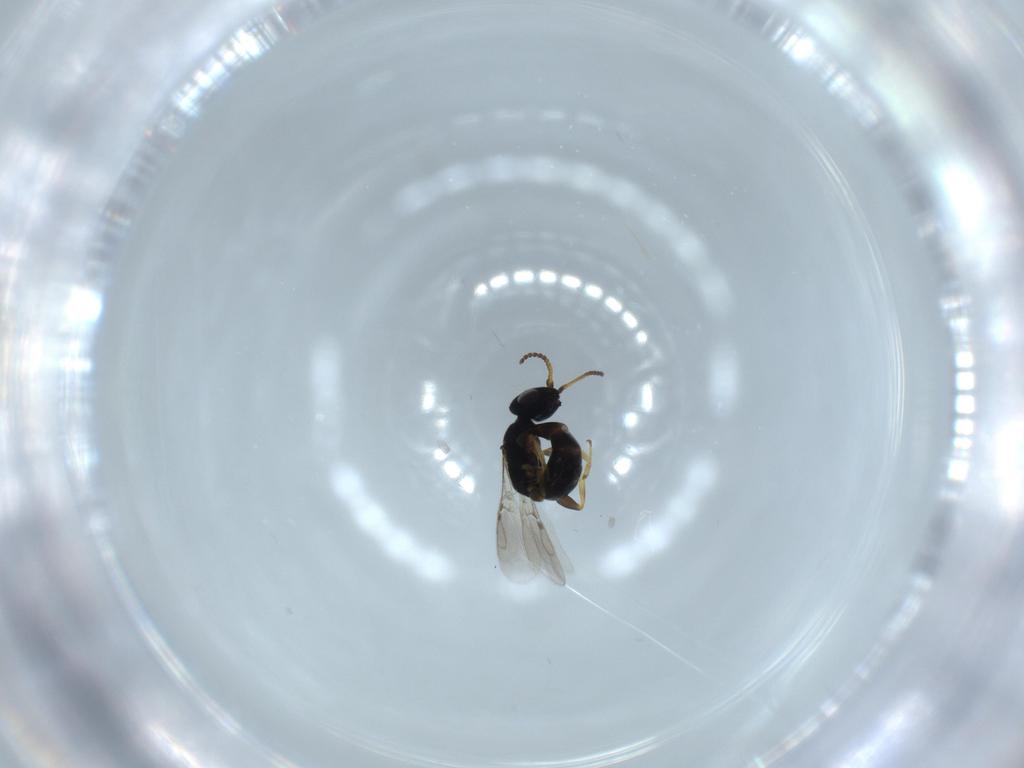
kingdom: Animalia
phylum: Arthropoda
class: Insecta
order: Hymenoptera
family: Bethylidae
